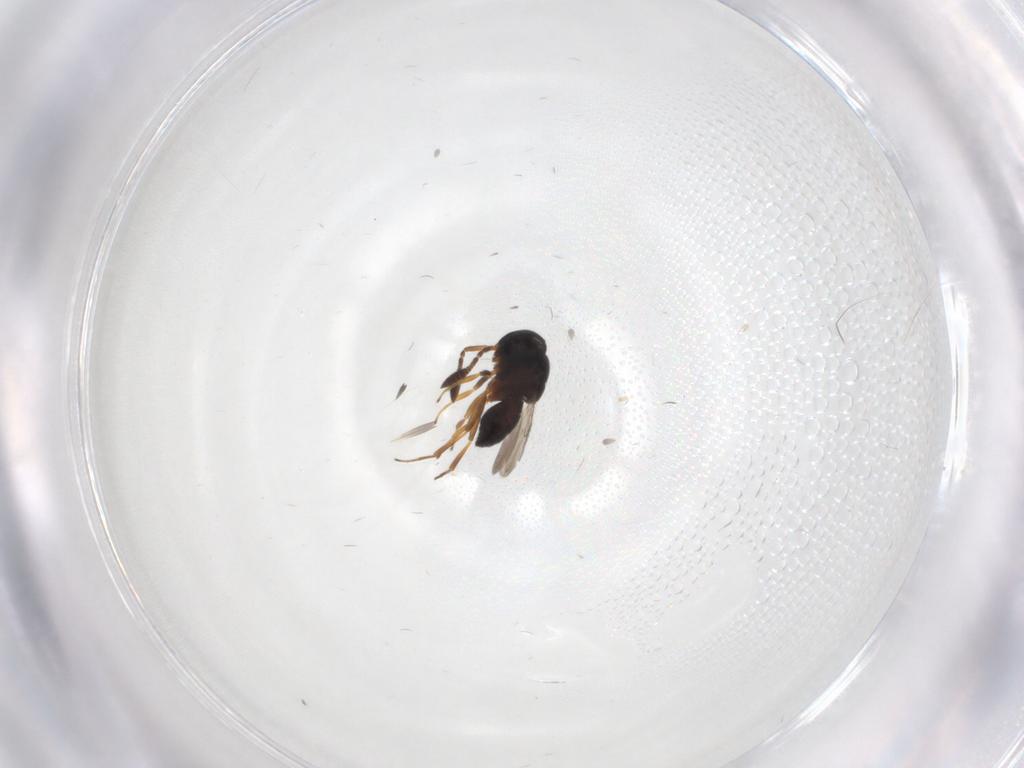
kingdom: Animalia
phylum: Arthropoda
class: Insecta
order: Hymenoptera
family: Scelionidae
